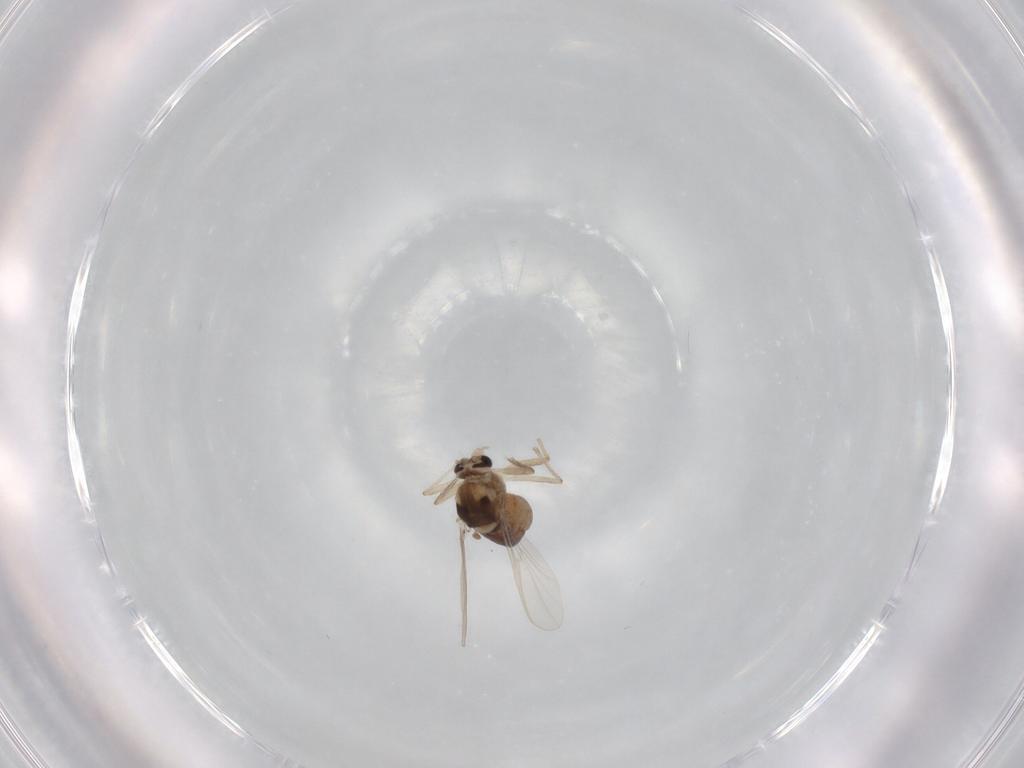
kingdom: Animalia
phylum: Arthropoda
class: Insecta
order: Diptera
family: Chironomidae
